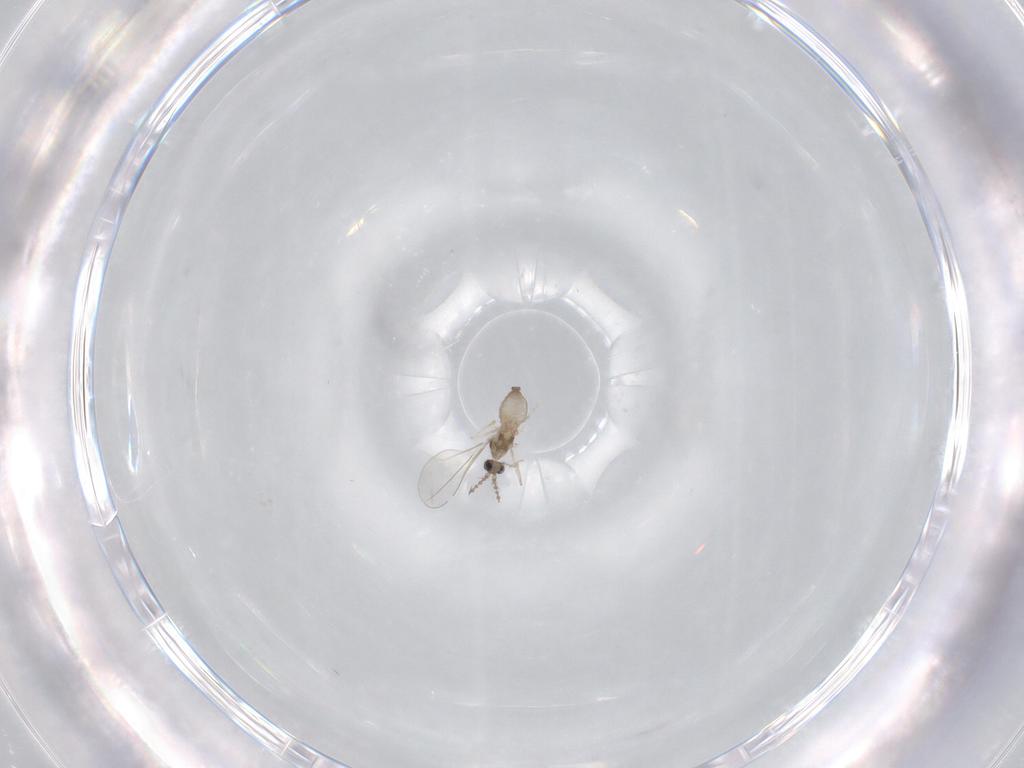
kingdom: Animalia
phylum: Arthropoda
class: Insecta
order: Diptera
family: Cecidomyiidae
